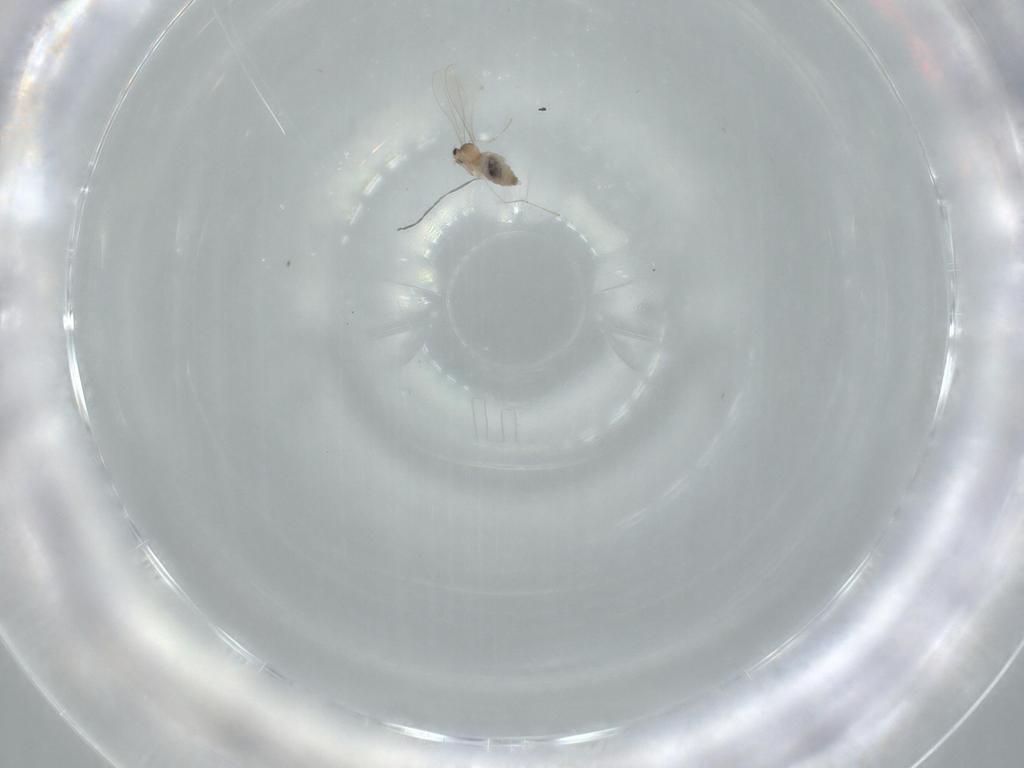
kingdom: Animalia
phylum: Arthropoda
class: Insecta
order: Diptera
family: Cecidomyiidae
